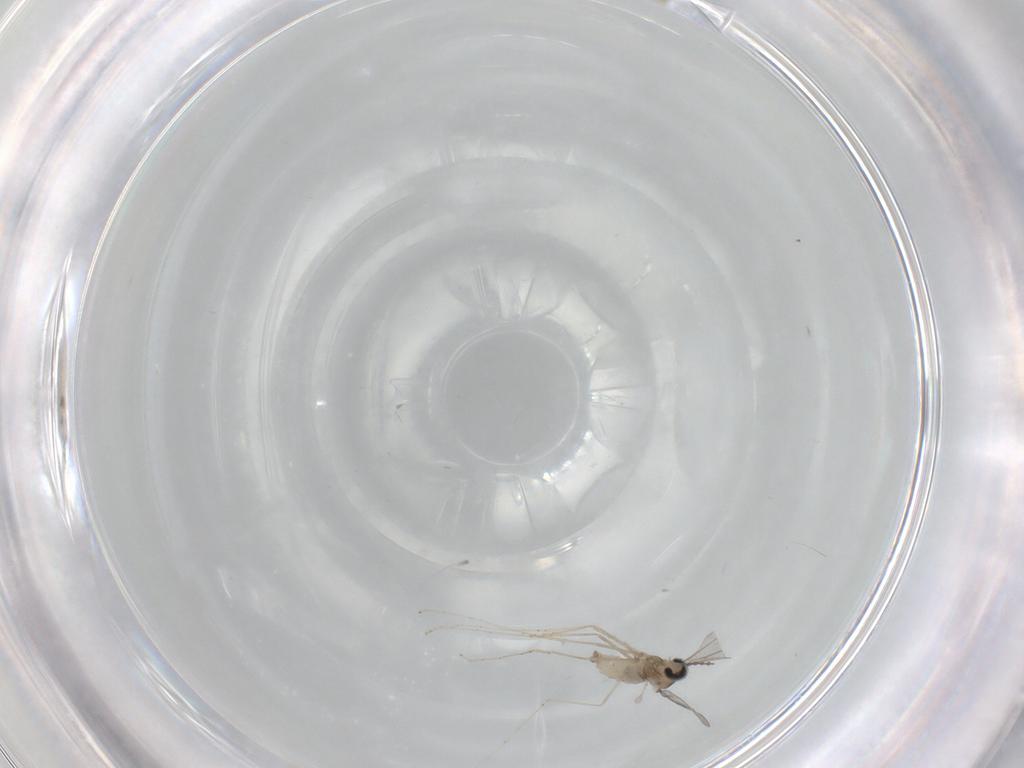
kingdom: Animalia
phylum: Arthropoda
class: Insecta
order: Diptera
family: Cecidomyiidae
